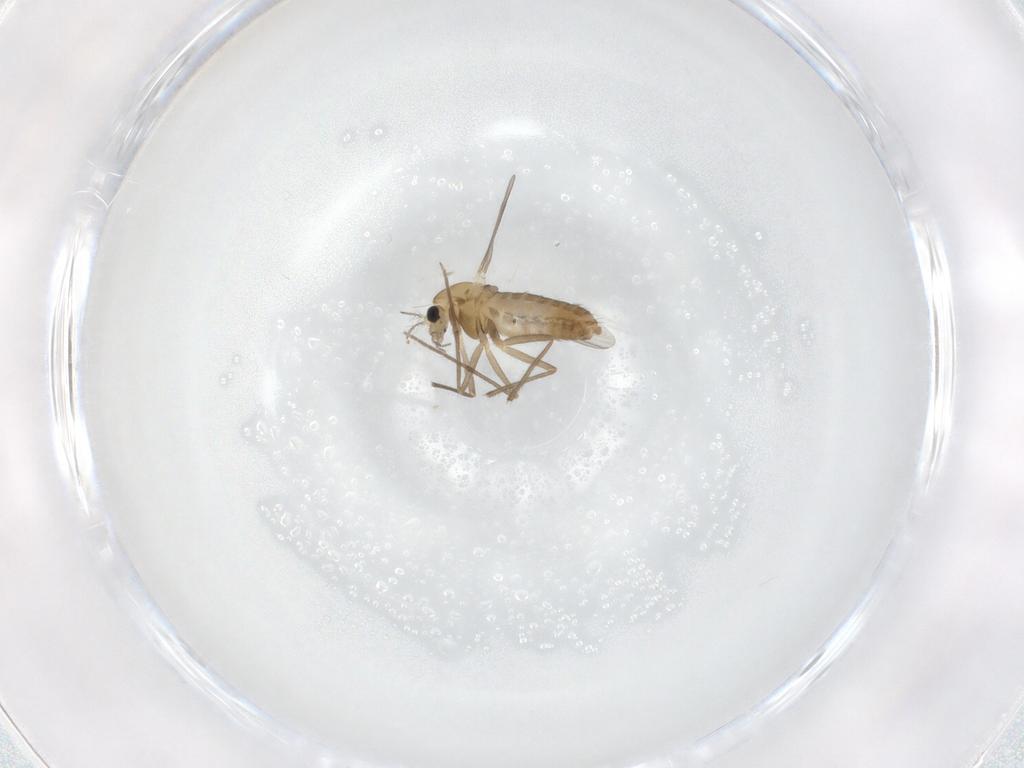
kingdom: Animalia
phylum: Arthropoda
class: Insecta
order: Diptera
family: Chironomidae
